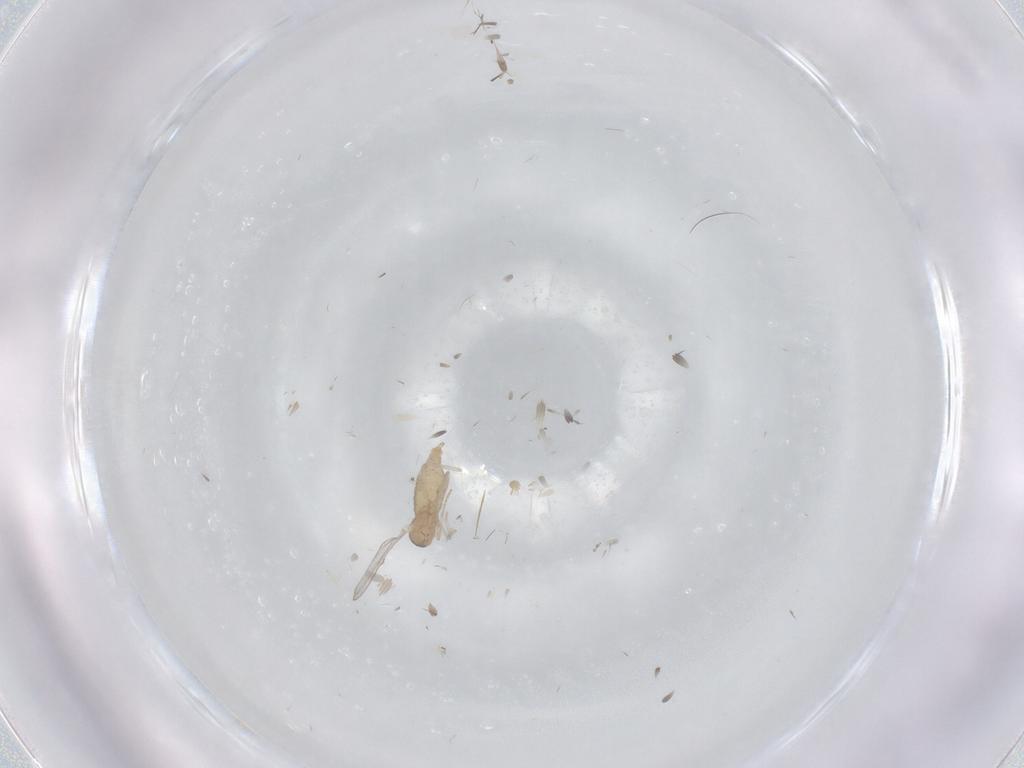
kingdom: Animalia
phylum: Arthropoda
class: Insecta
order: Diptera
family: Cecidomyiidae
